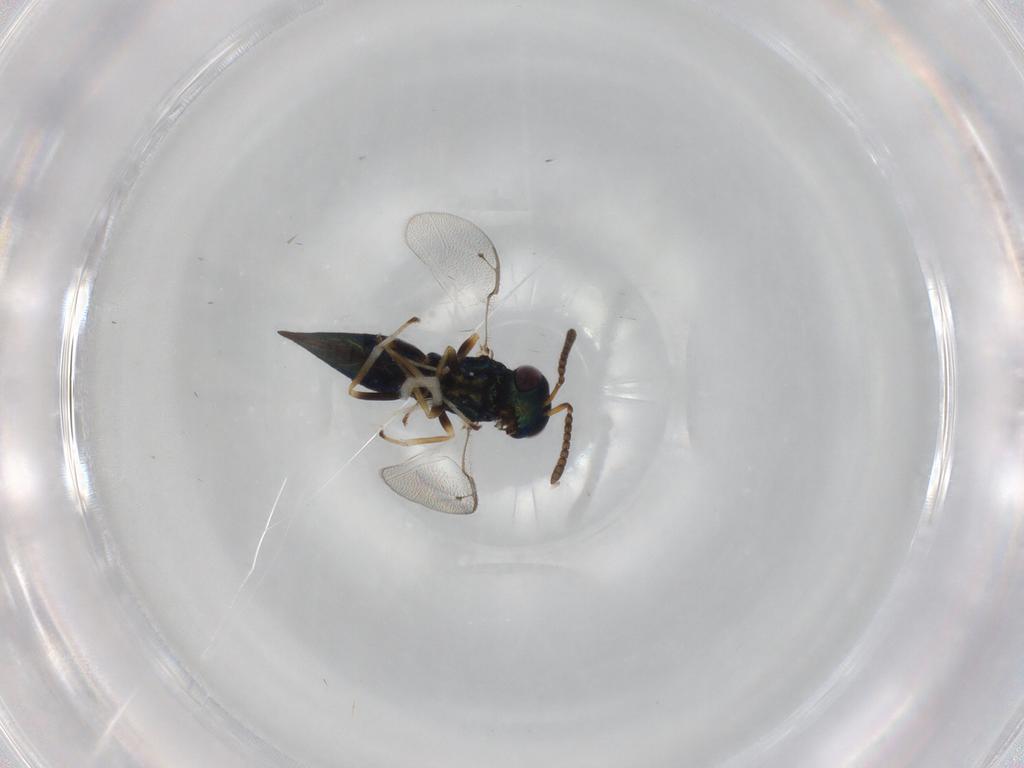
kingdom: Animalia
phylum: Arthropoda
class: Insecta
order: Hymenoptera
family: Pteromalidae
